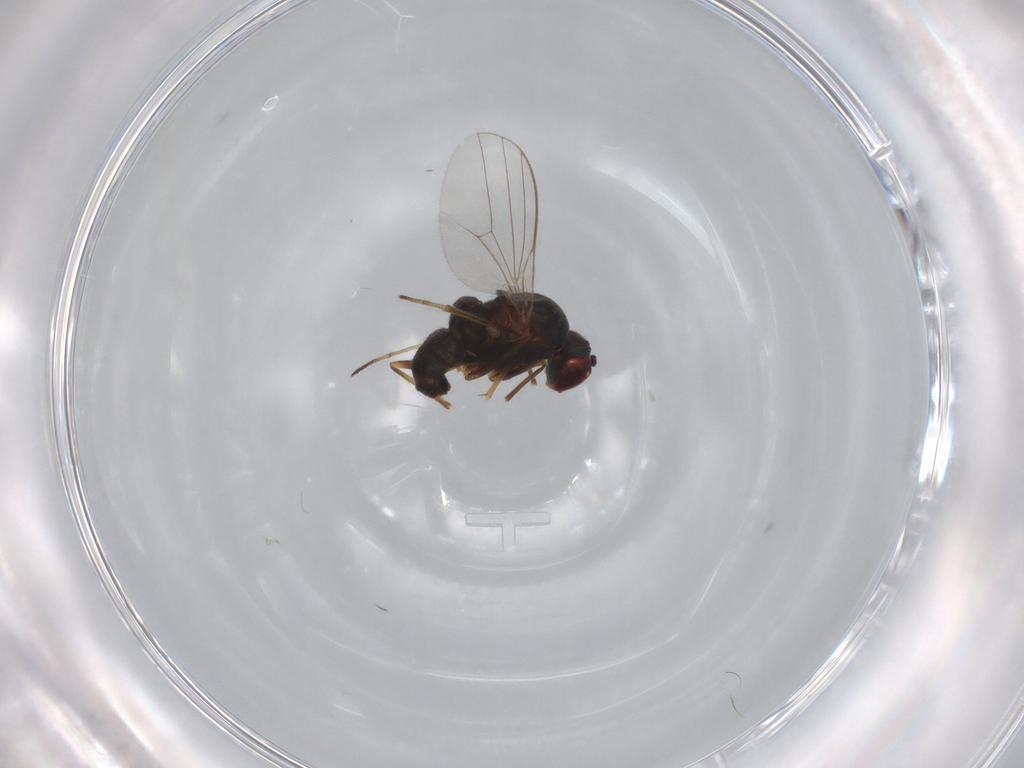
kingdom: Animalia
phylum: Arthropoda
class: Insecta
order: Diptera
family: Dolichopodidae
